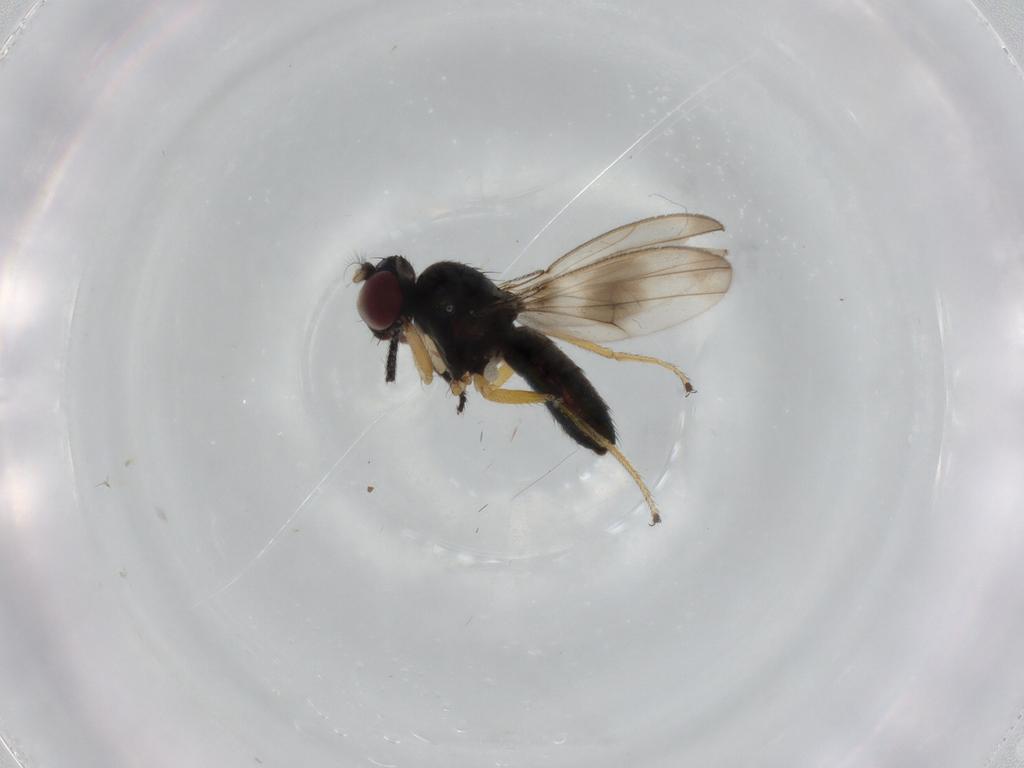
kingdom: Animalia
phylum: Arthropoda
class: Insecta
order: Diptera
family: Ephydridae
